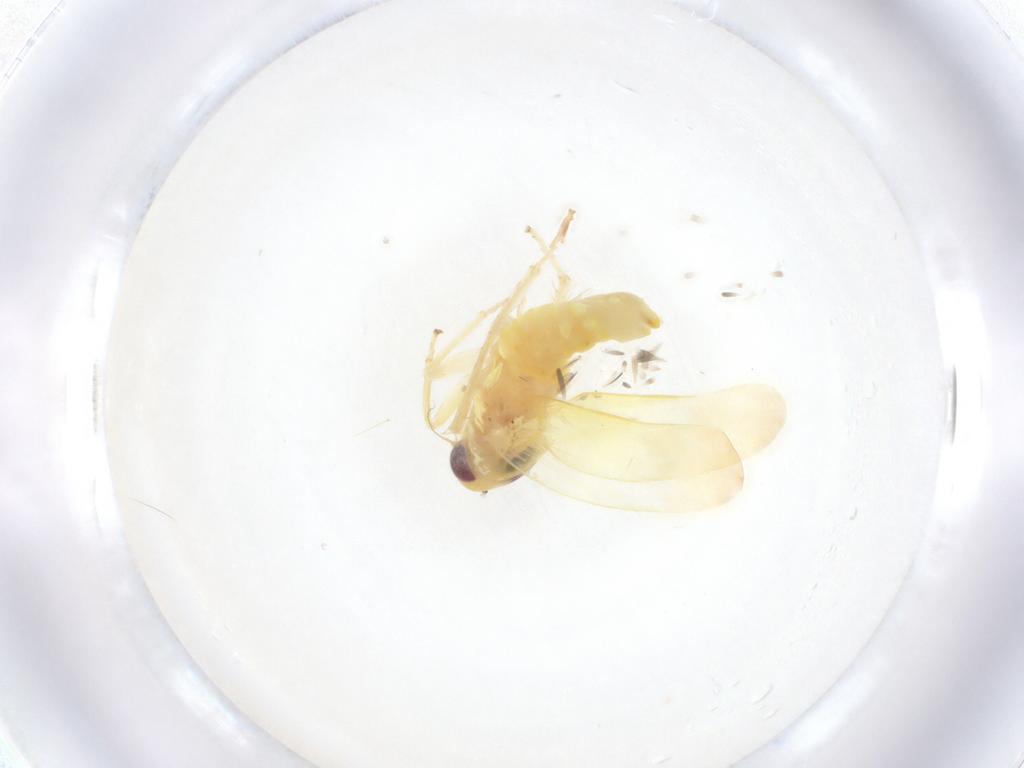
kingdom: Animalia
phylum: Arthropoda
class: Insecta
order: Hemiptera
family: Cicadellidae
